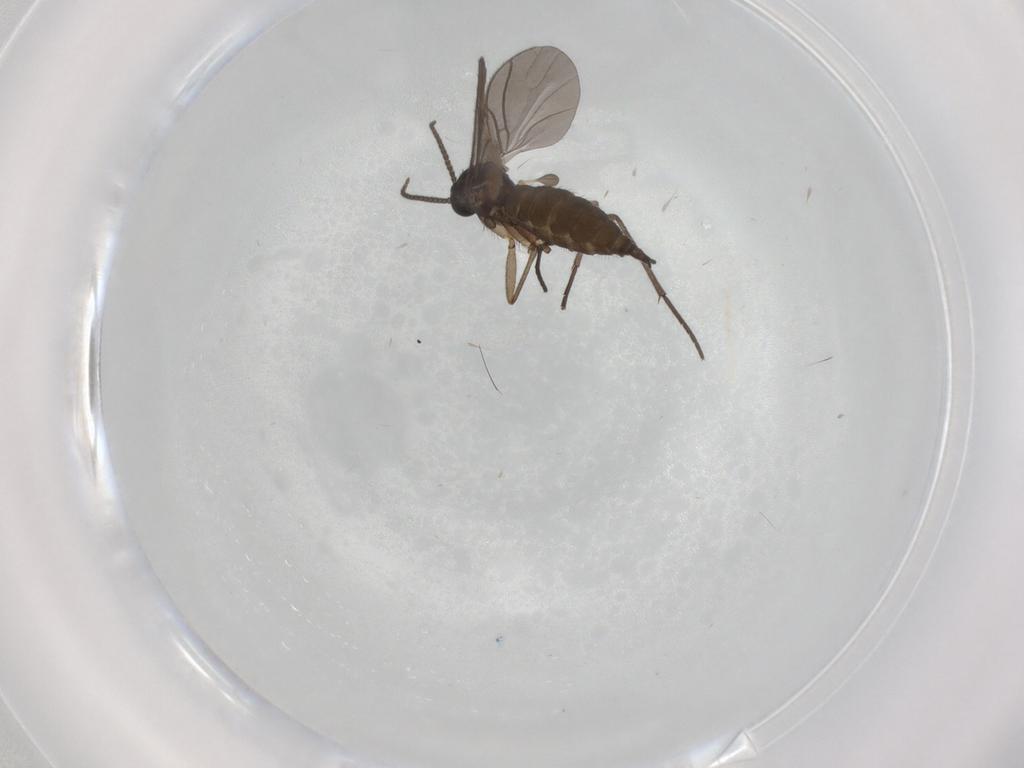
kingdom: Animalia
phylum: Arthropoda
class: Insecta
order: Diptera
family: Sciaridae
